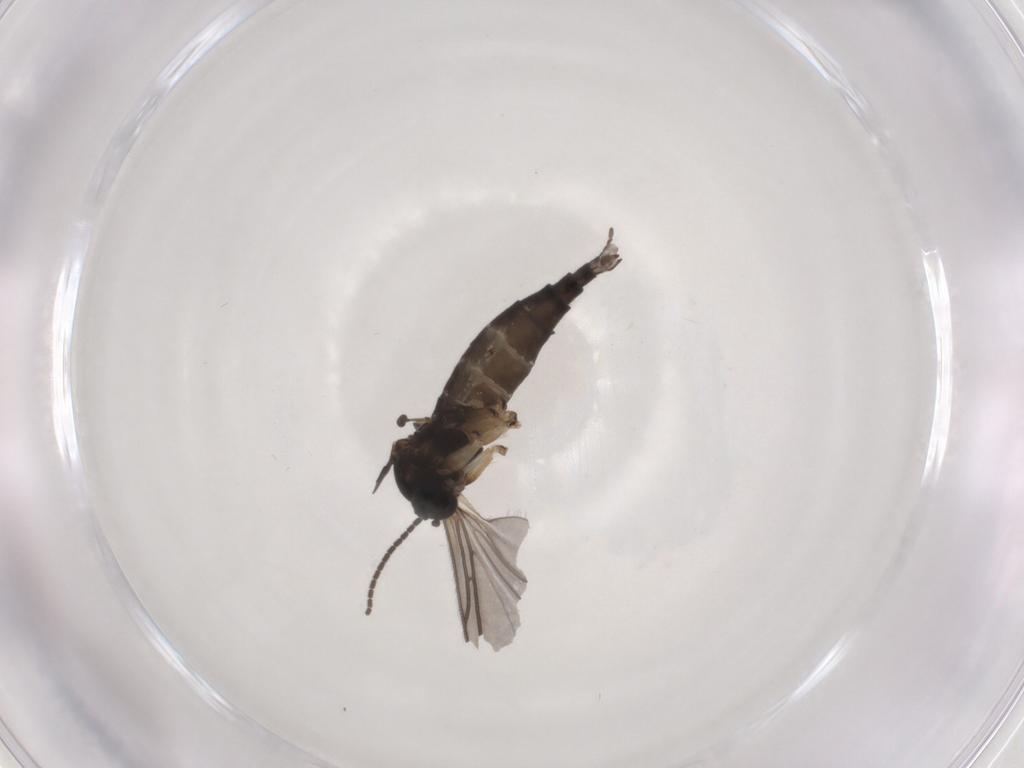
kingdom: Animalia
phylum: Arthropoda
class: Insecta
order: Diptera
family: Sciaridae
